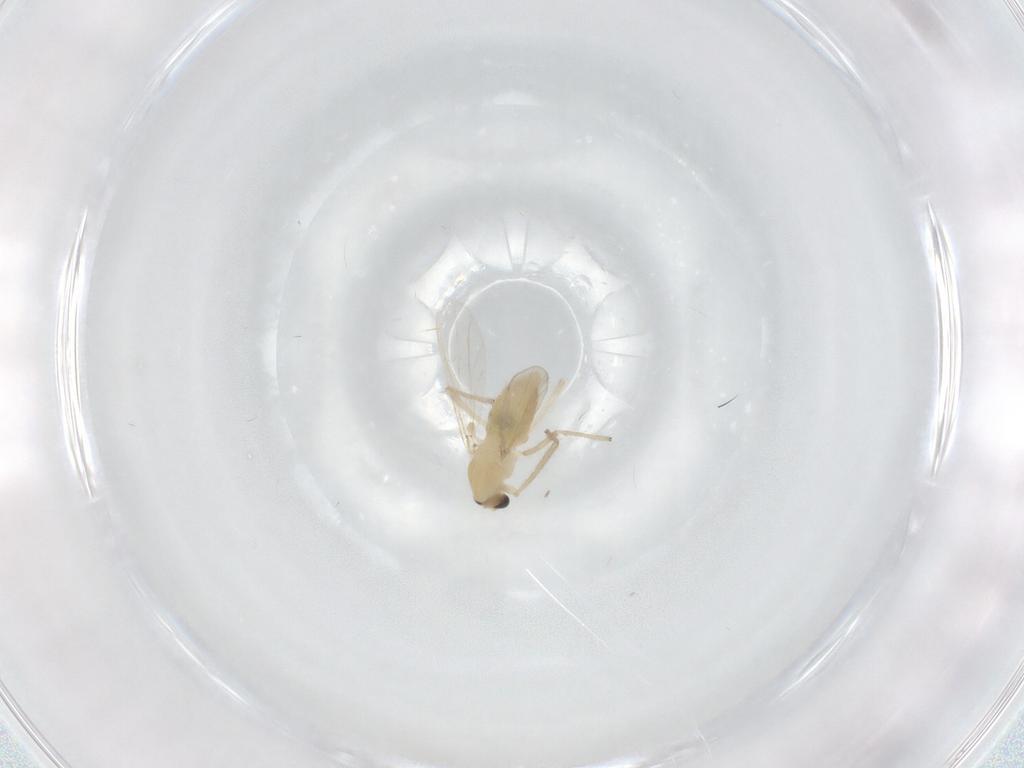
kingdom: Animalia
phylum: Arthropoda
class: Insecta
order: Diptera
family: Chironomidae
